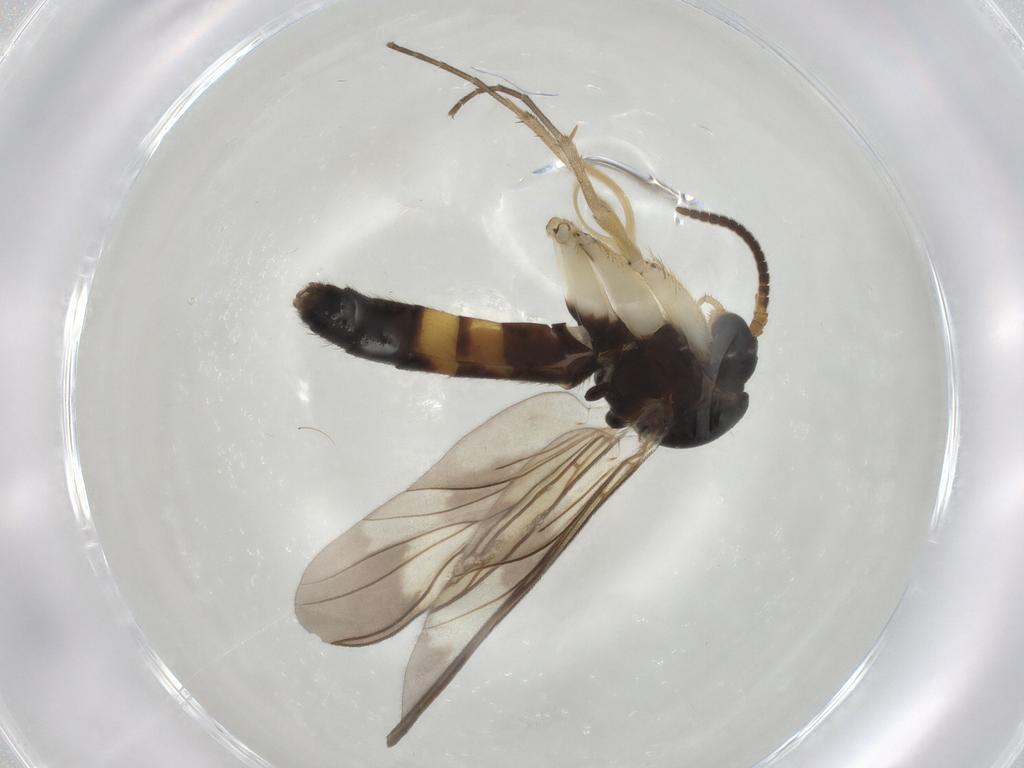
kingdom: Animalia
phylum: Arthropoda
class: Insecta
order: Diptera
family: Mycetophilidae
